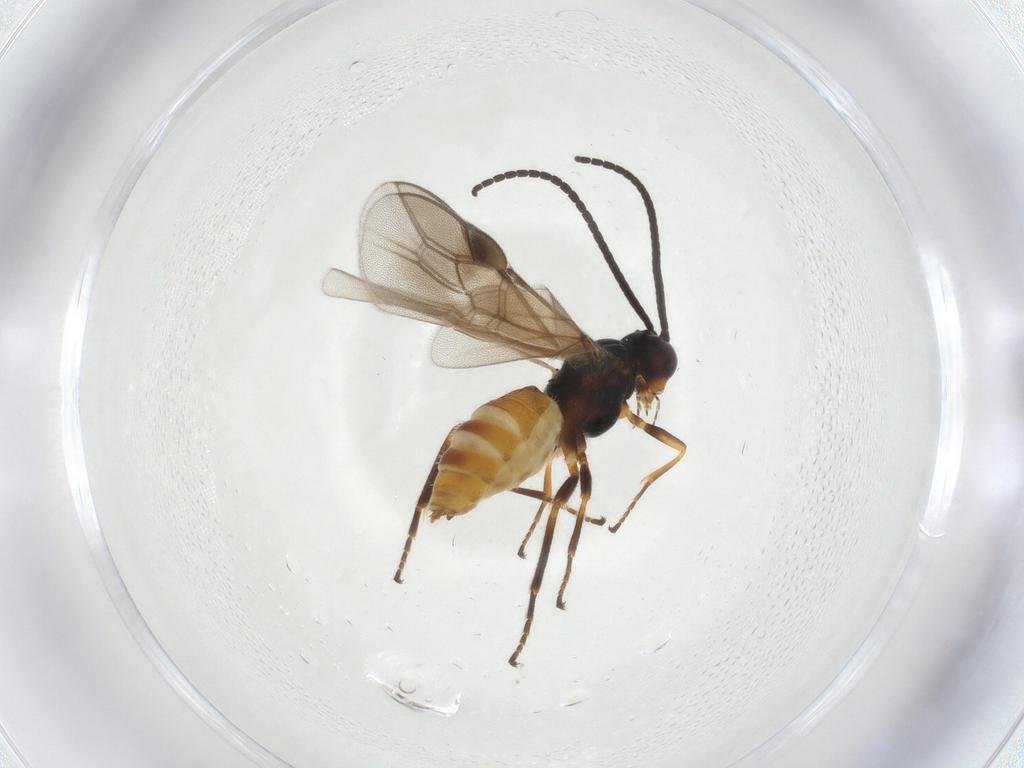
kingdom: Animalia
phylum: Arthropoda
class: Insecta
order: Hymenoptera
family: Braconidae
